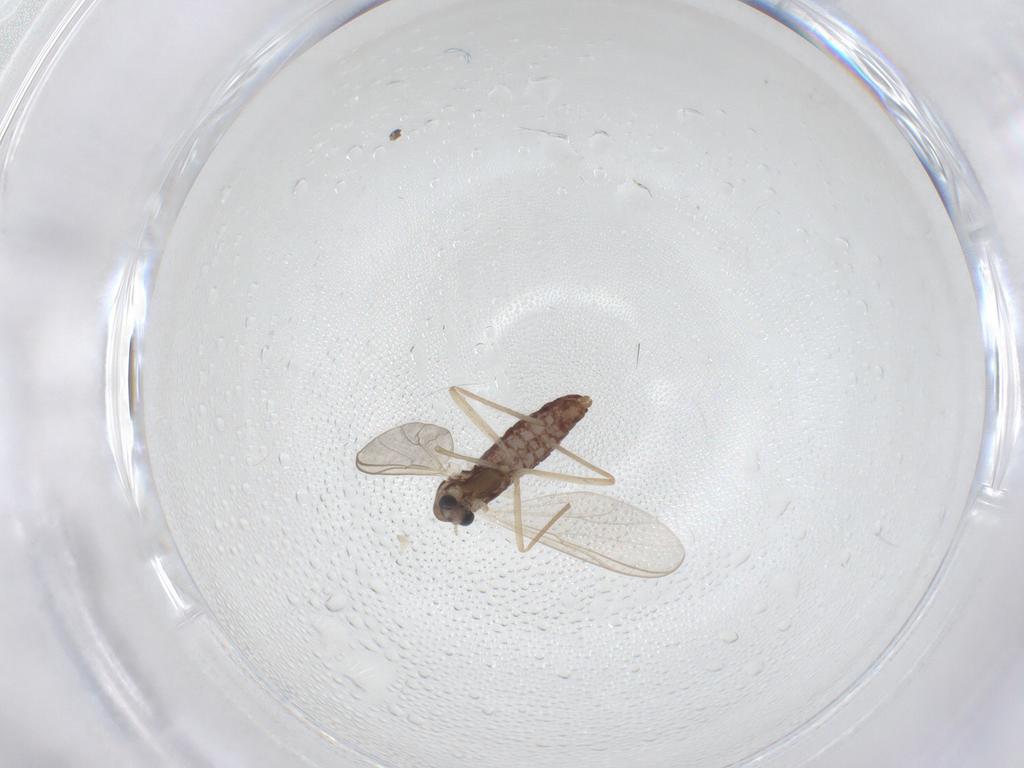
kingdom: Animalia
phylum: Arthropoda
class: Insecta
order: Diptera
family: Chironomidae
